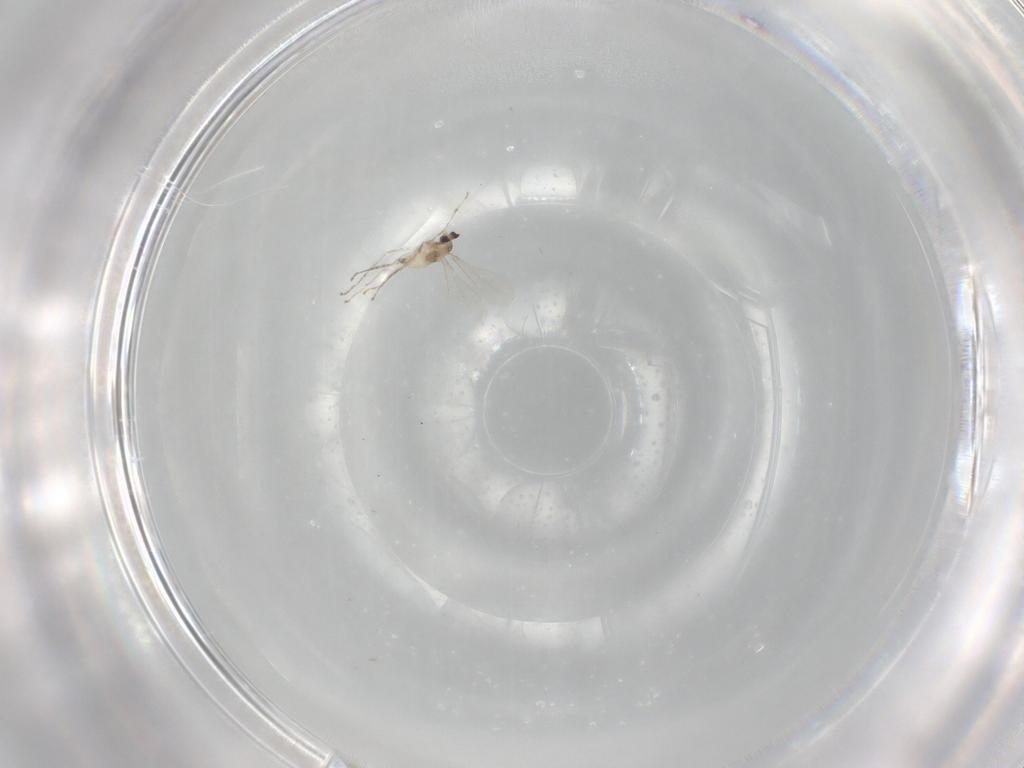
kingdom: Animalia
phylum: Arthropoda
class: Insecta
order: Diptera
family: Cecidomyiidae
